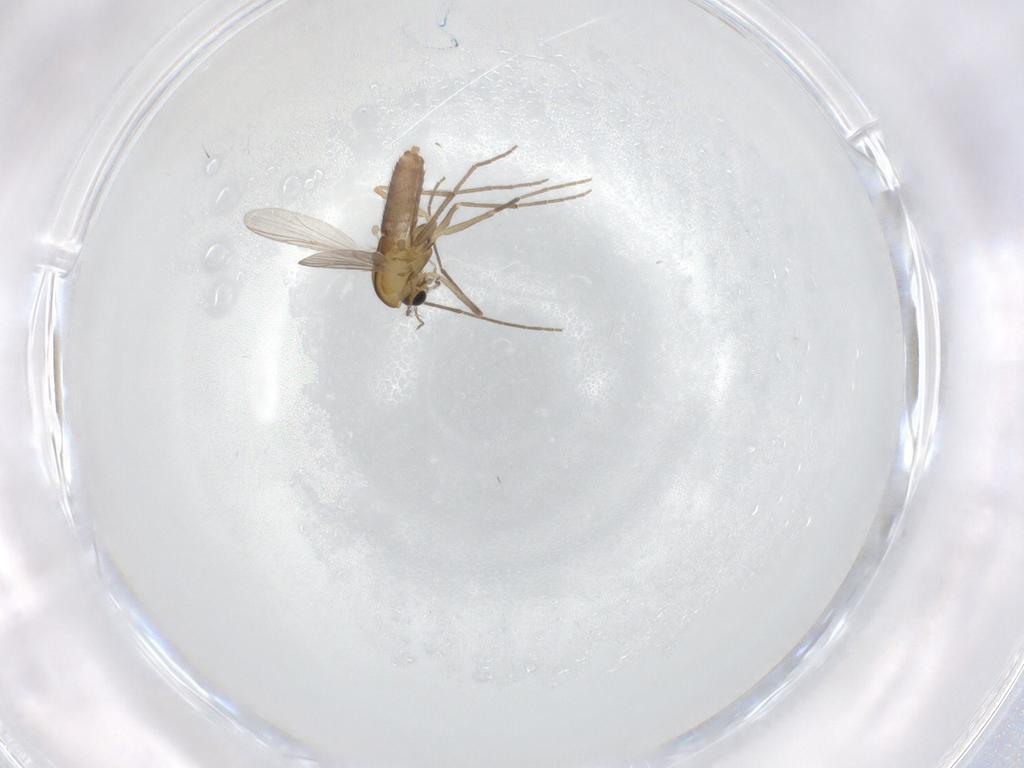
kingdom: Animalia
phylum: Arthropoda
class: Insecta
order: Diptera
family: Chironomidae
